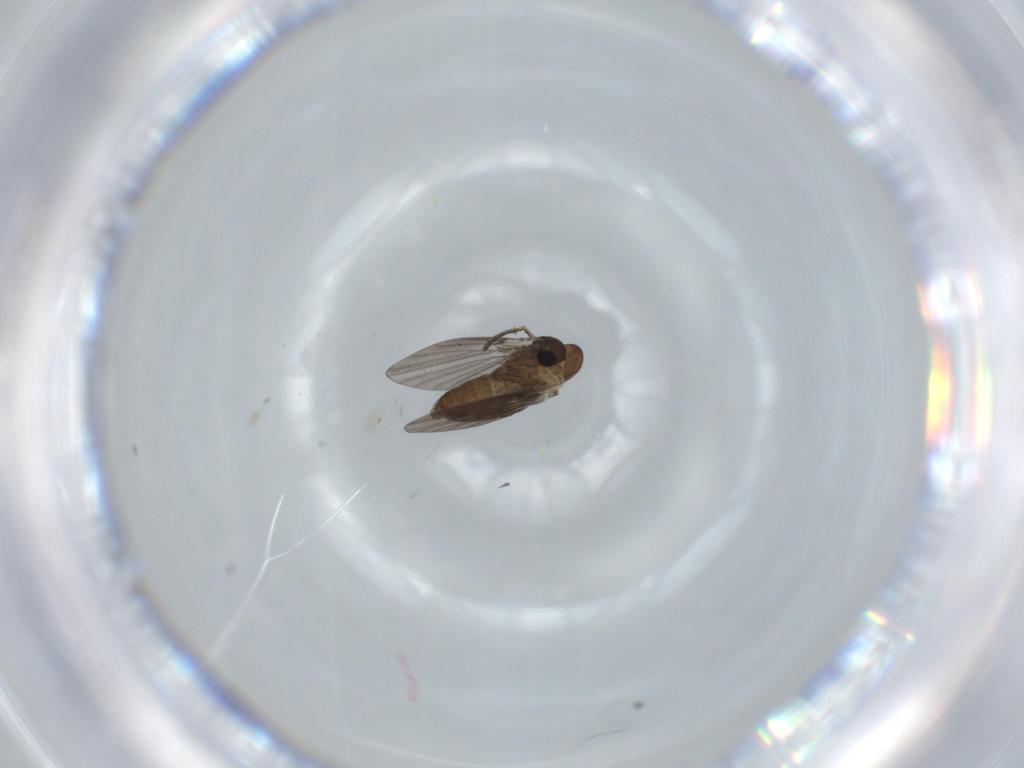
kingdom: Animalia
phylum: Arthropoda
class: Insecta
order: Diptera
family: Psychodidae
